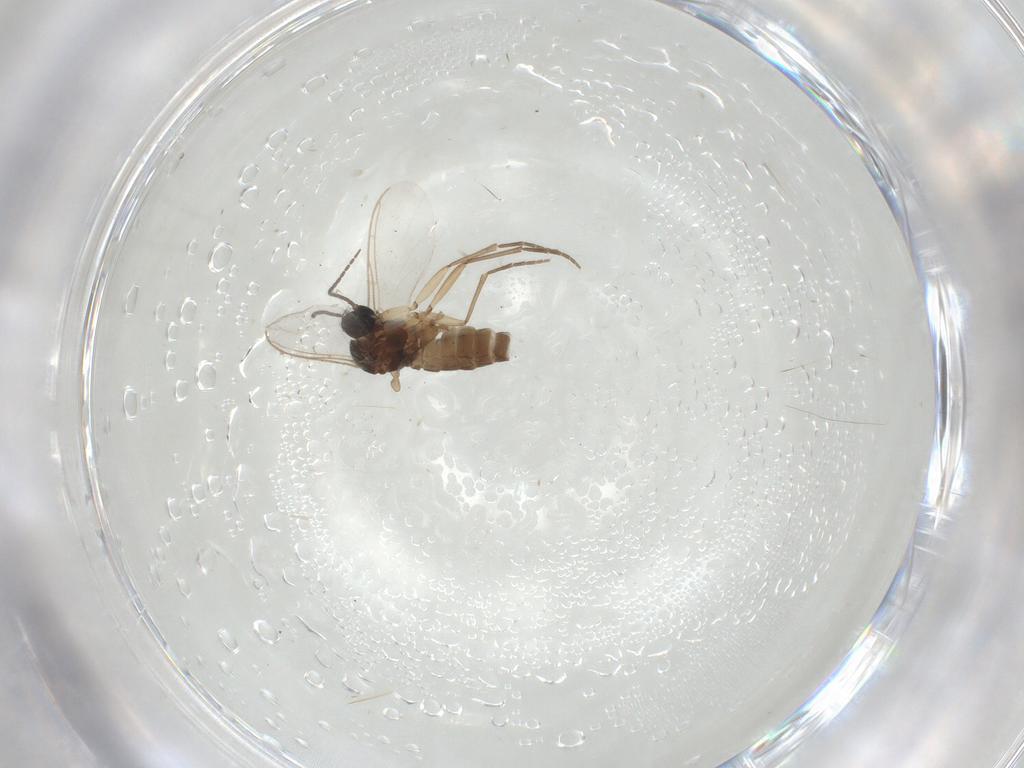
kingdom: Animalia
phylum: Arthropoda
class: Insecta
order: Diptera
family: Sciaridae
